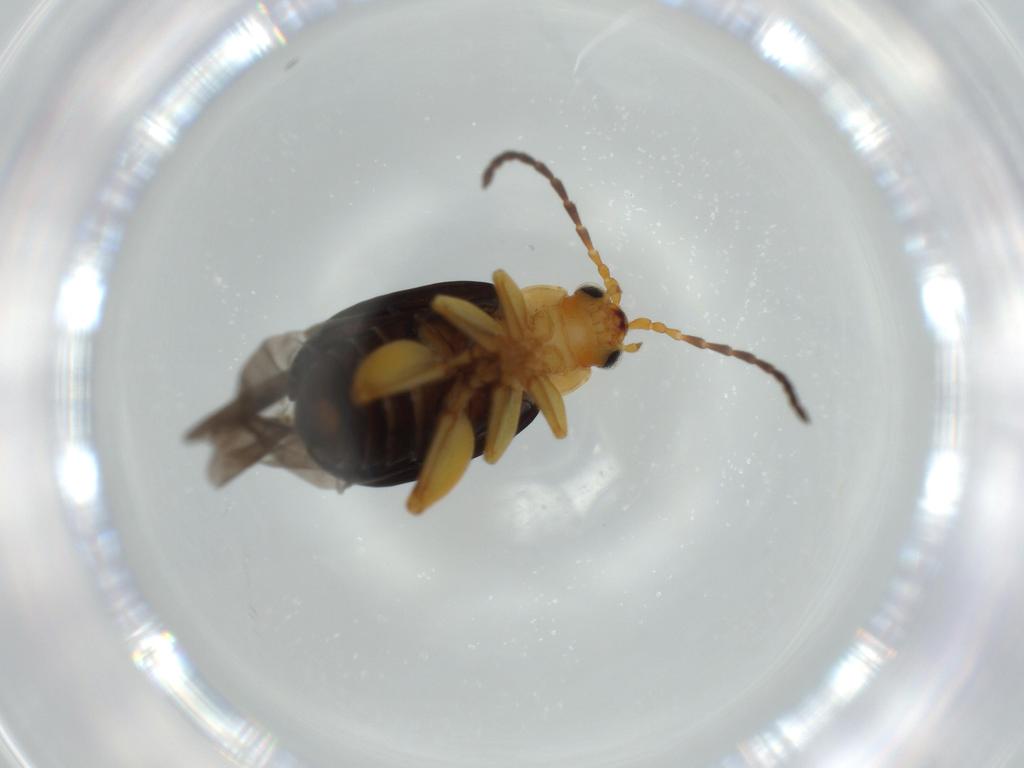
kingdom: Animalia
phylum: Arthropoda
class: Insecta
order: Coleoptera
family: Chrysomelidae
